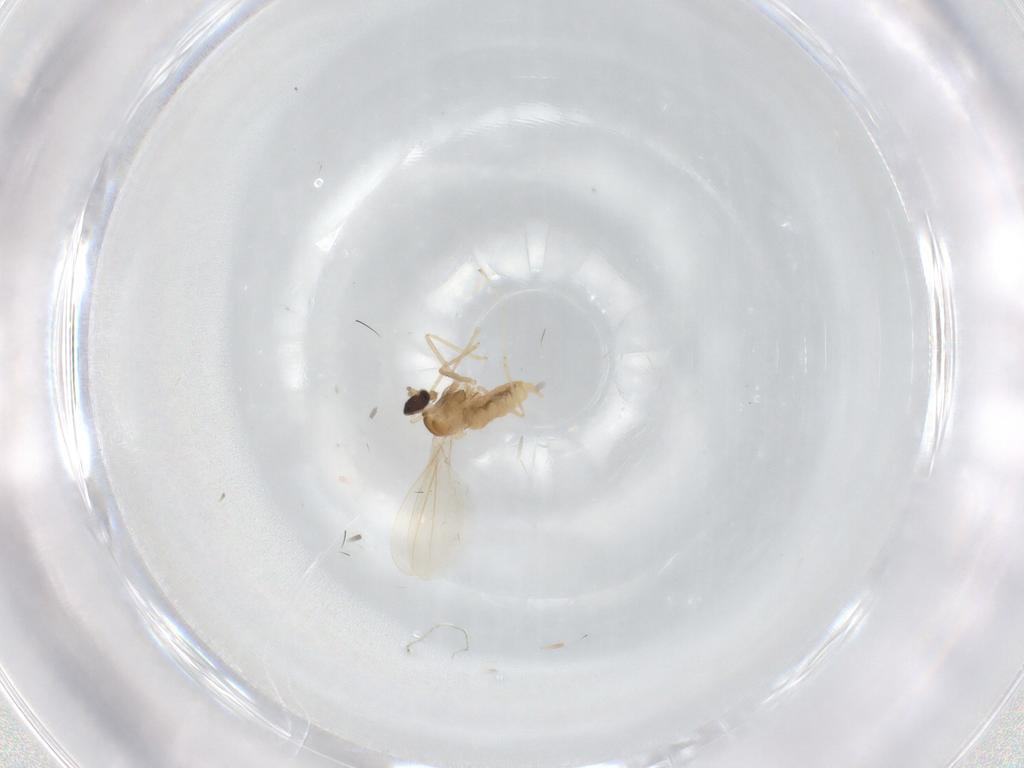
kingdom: Animalia
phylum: Arthropoda
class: Insecta
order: Diptera
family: Cecidomyiidae
